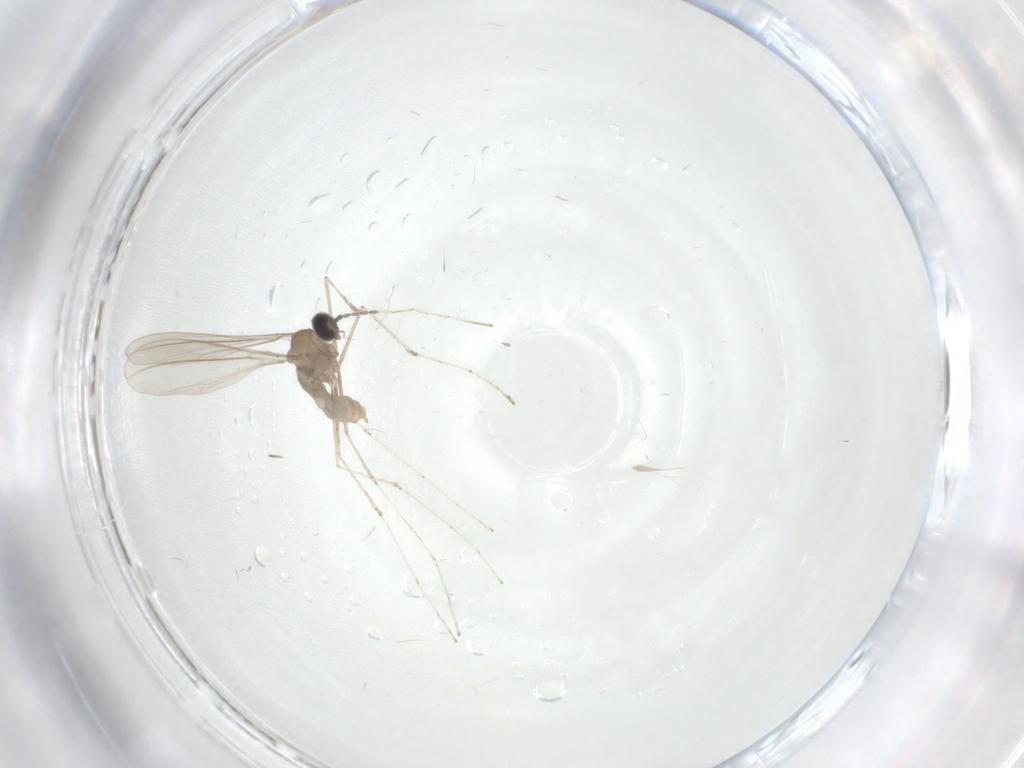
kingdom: Animalia
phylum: Arthropoda
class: Insecta
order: Diptera
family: Cecidomyiidae
